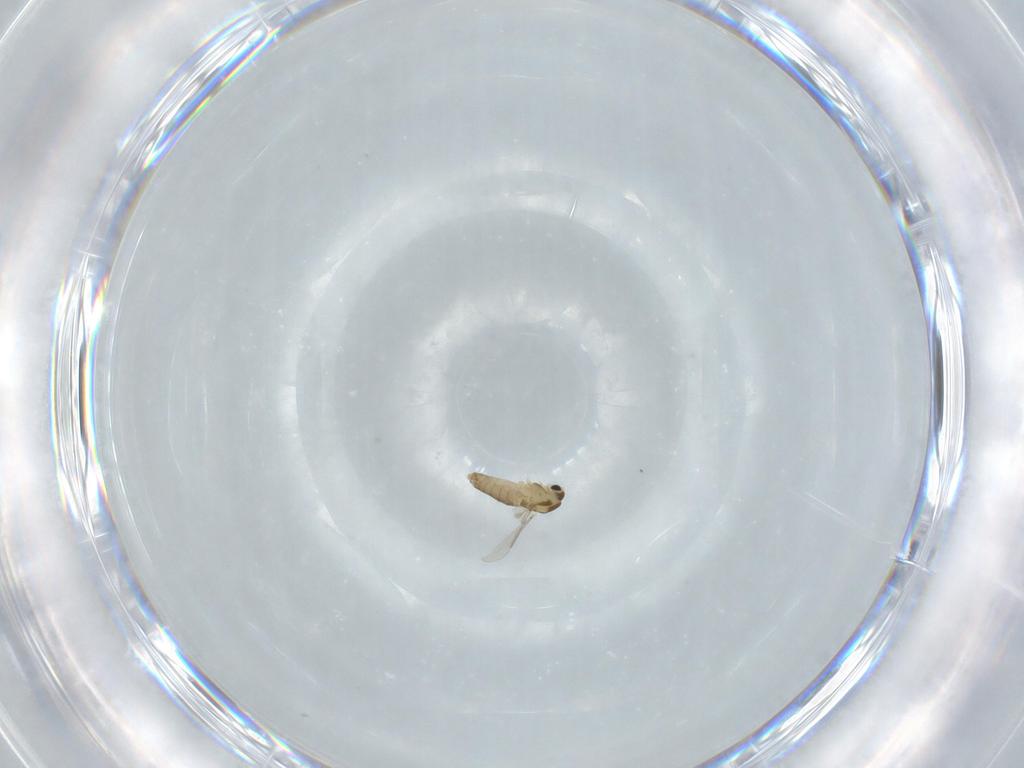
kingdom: Animalia
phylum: Arthropoda
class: Insecta
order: Diptera
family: Chironomidae
